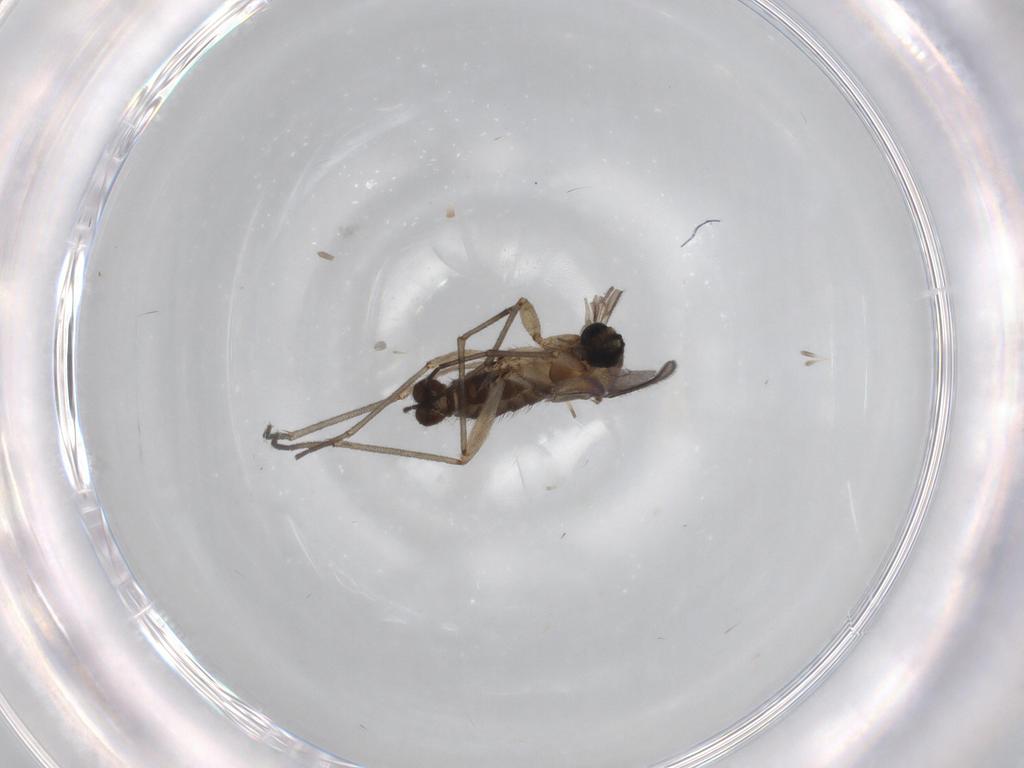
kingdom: Animalia
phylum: Arthropoda
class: Insecta
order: Diptera
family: Sciaridae
